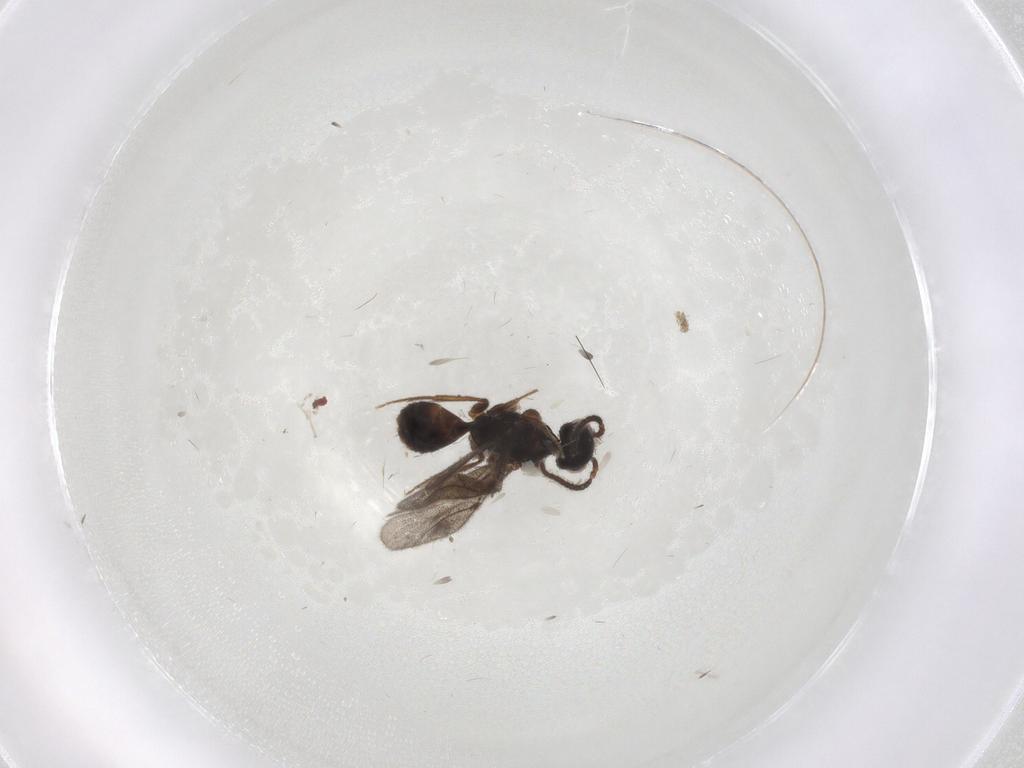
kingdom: Animalia
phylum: Arthropoda
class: Insecta
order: Hymenoptera
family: Bethylidae
